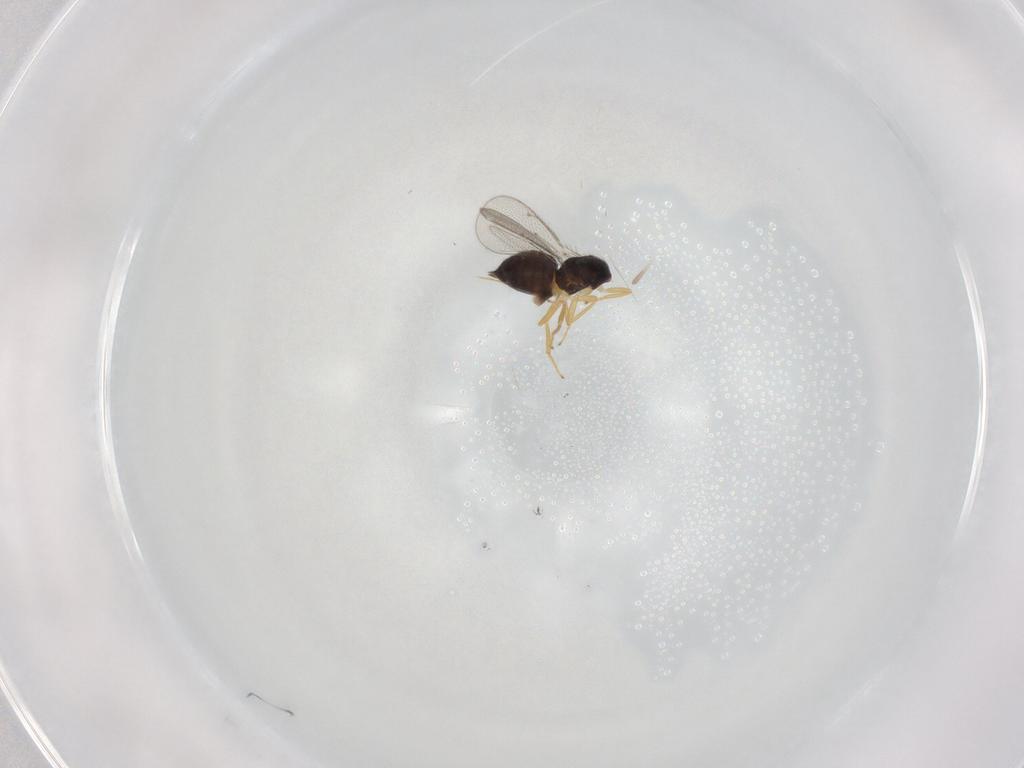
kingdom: Animalia
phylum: Arthropoda
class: Insecta
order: Hymenoptera
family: Eulophidae
